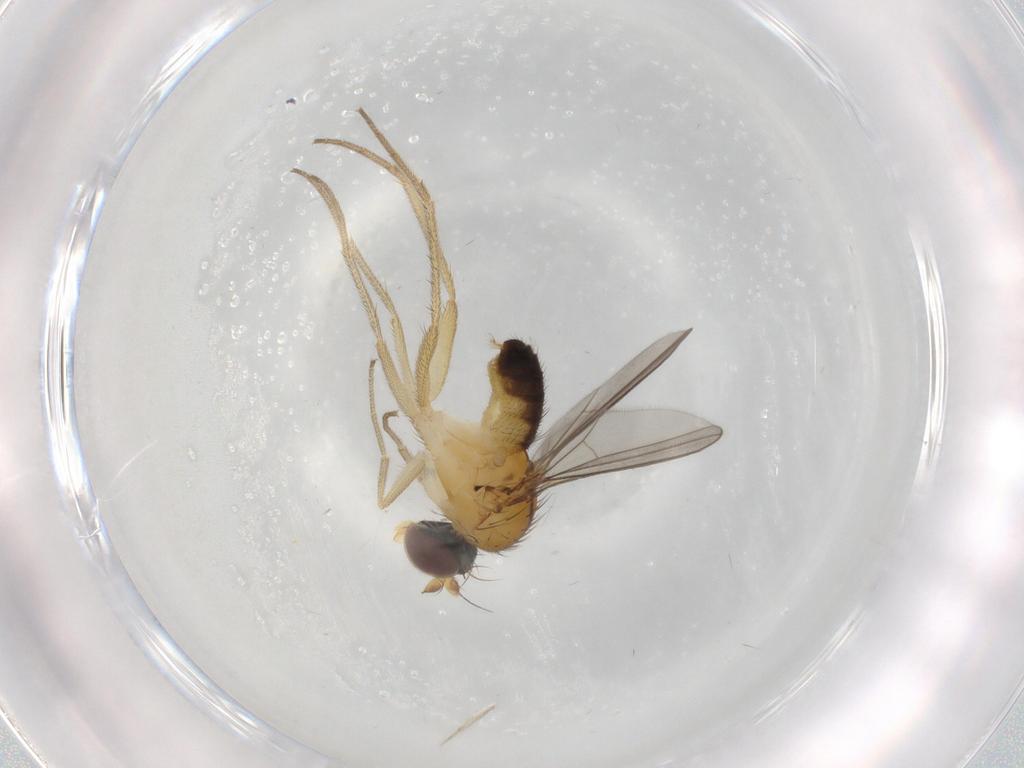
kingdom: Animalia
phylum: Arthropoda
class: Insecta
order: Diptera
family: Dolichopodidae
